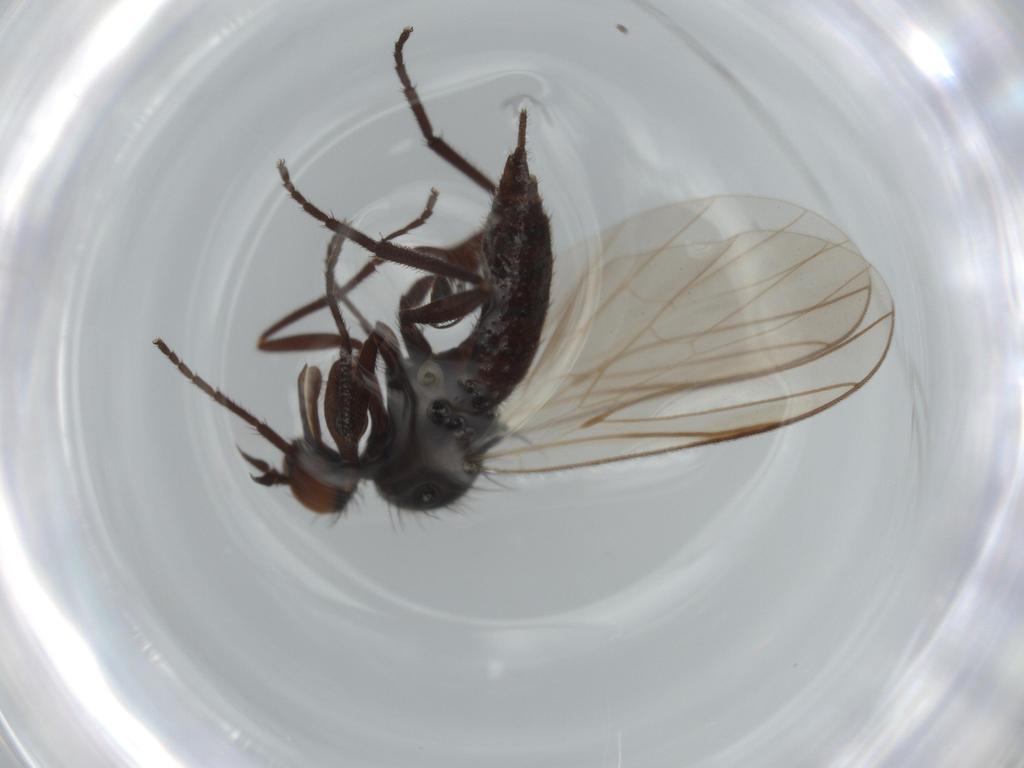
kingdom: Animalia
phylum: Arthropoda
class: Insecta
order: Diptera
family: Empididae
